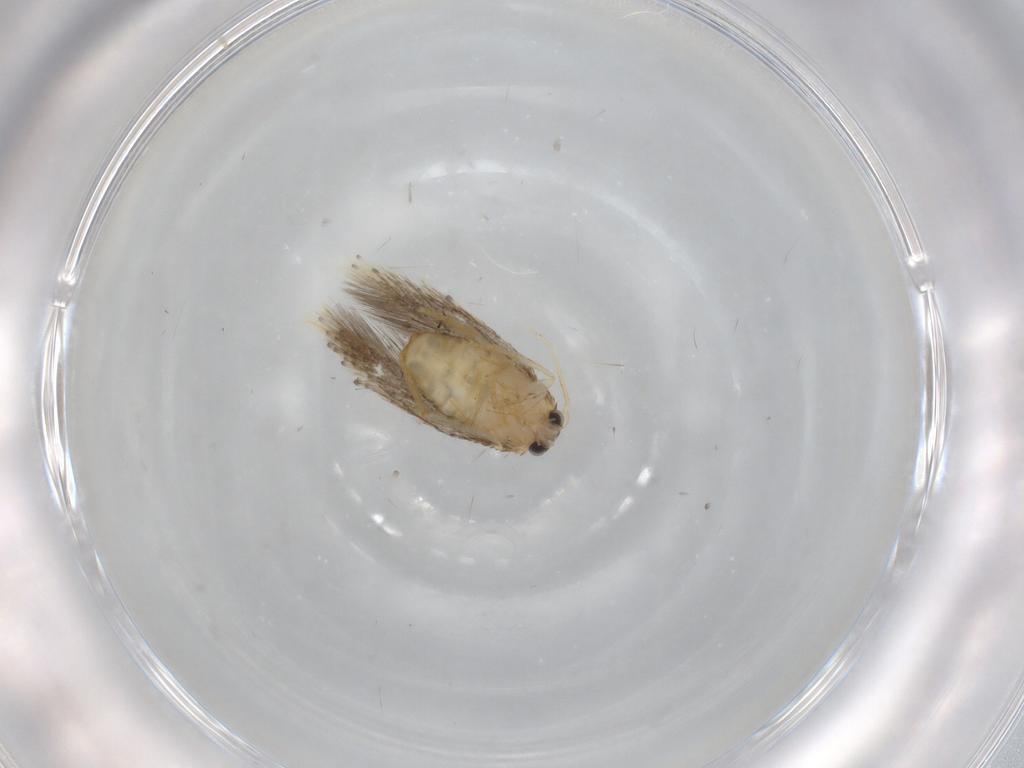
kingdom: Animalia
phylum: Arthropoda
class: Insecta
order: Lepidoptera
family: Nepticulidae
